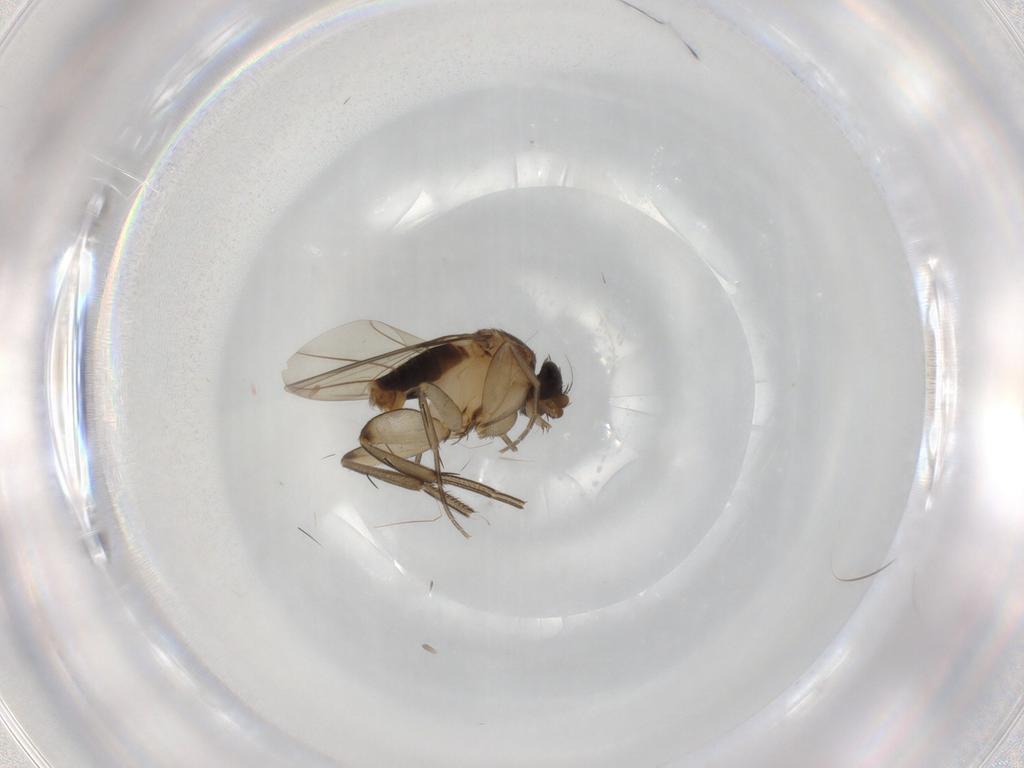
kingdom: Animalia
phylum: Arthropoda
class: Insecta
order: Diptera
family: Phoridae
